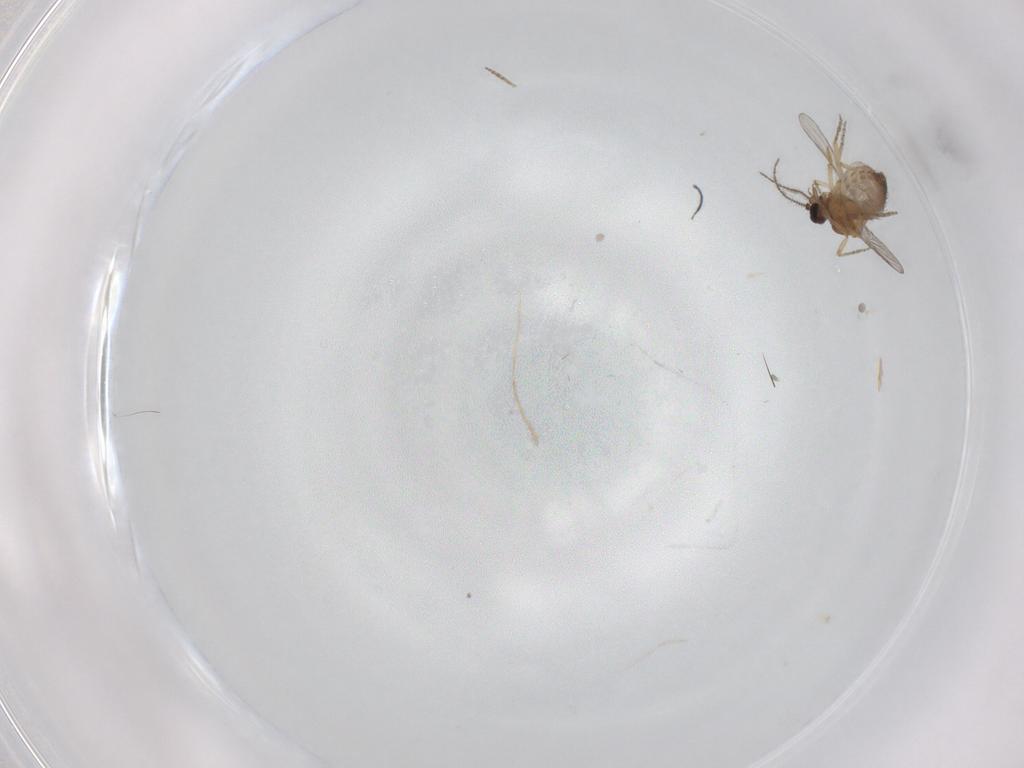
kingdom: Animalia
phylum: Arthropoda
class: Insecta
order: Diptera
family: Ceratopogonidae
